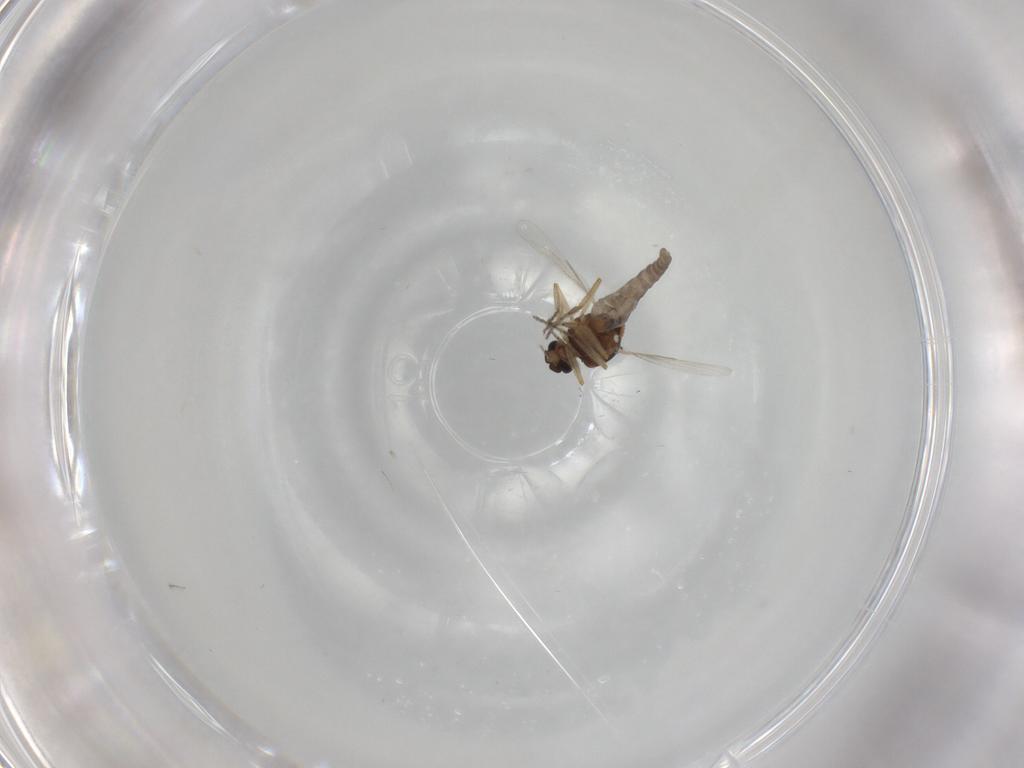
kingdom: Animalia
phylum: Arthropoda
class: Insecta
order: Diptera
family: Ceratopogonidae
